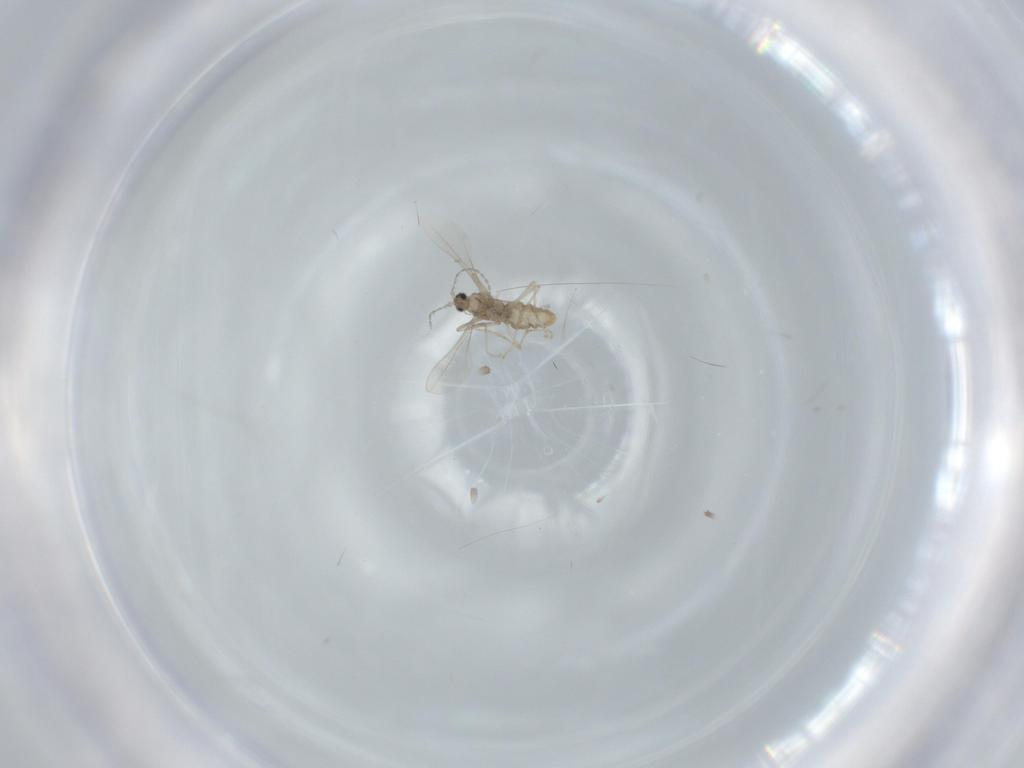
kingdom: Animalia
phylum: Arthropoda
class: Insecta
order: Diptera
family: Cecidomyiidae
